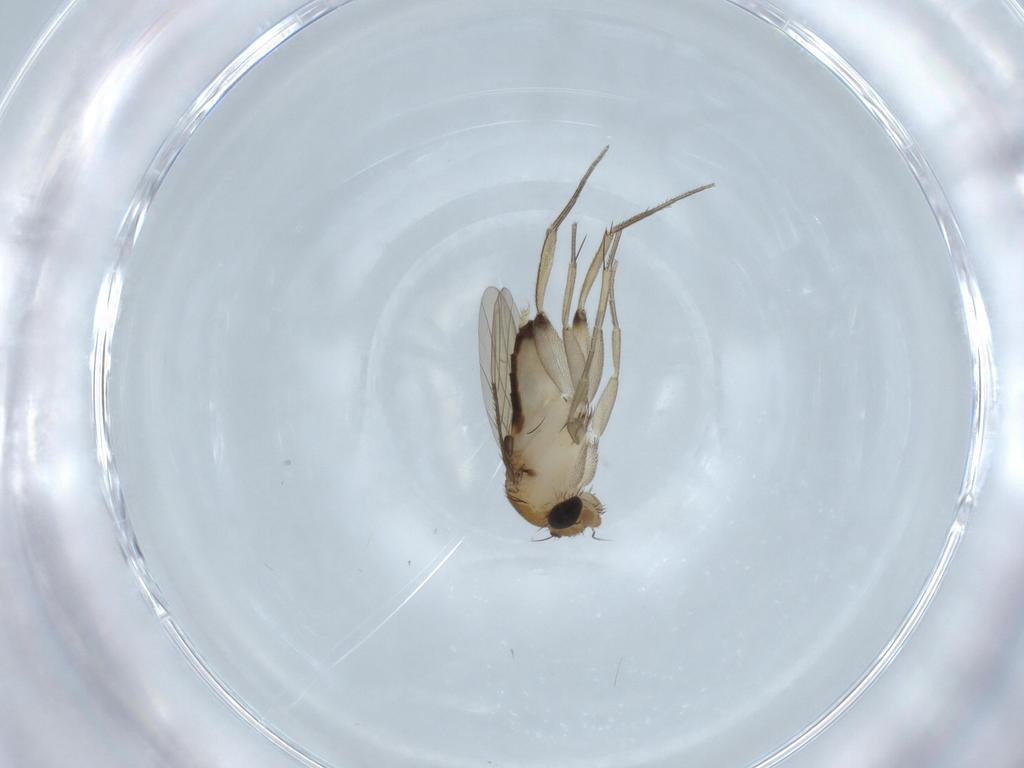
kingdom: Animalia
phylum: Arthropoda
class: Insecta
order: Diptera
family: Phoridae
